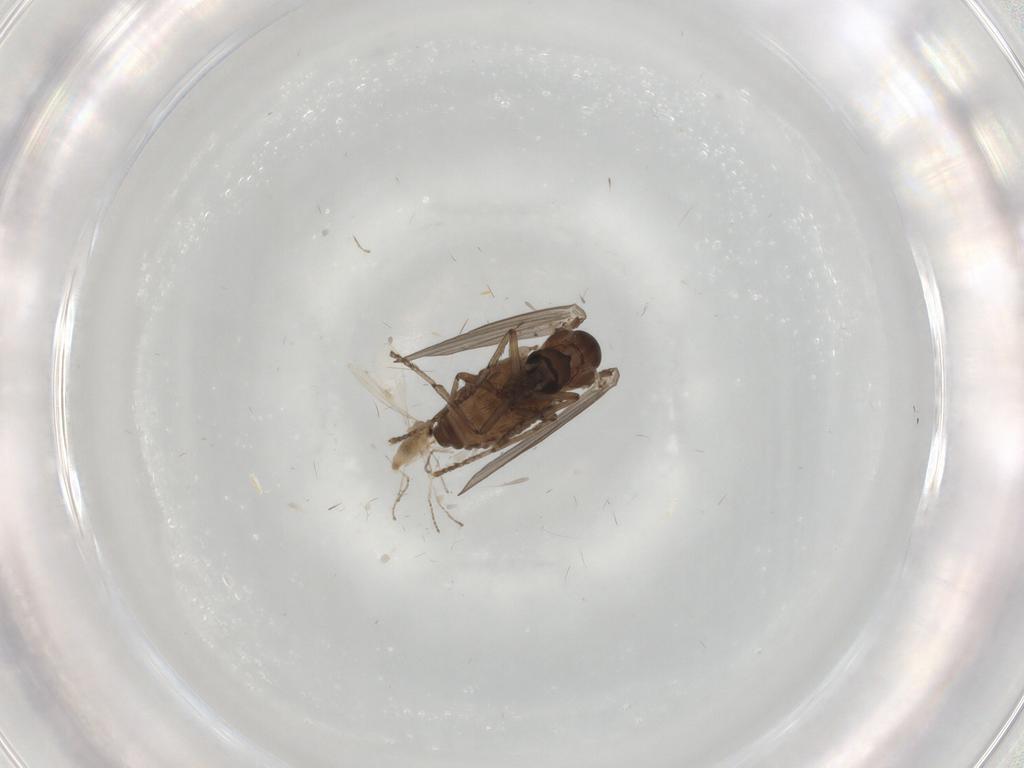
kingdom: Animalia
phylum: Arthropoda
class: Insecta
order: Diptera
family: Psychodidae
